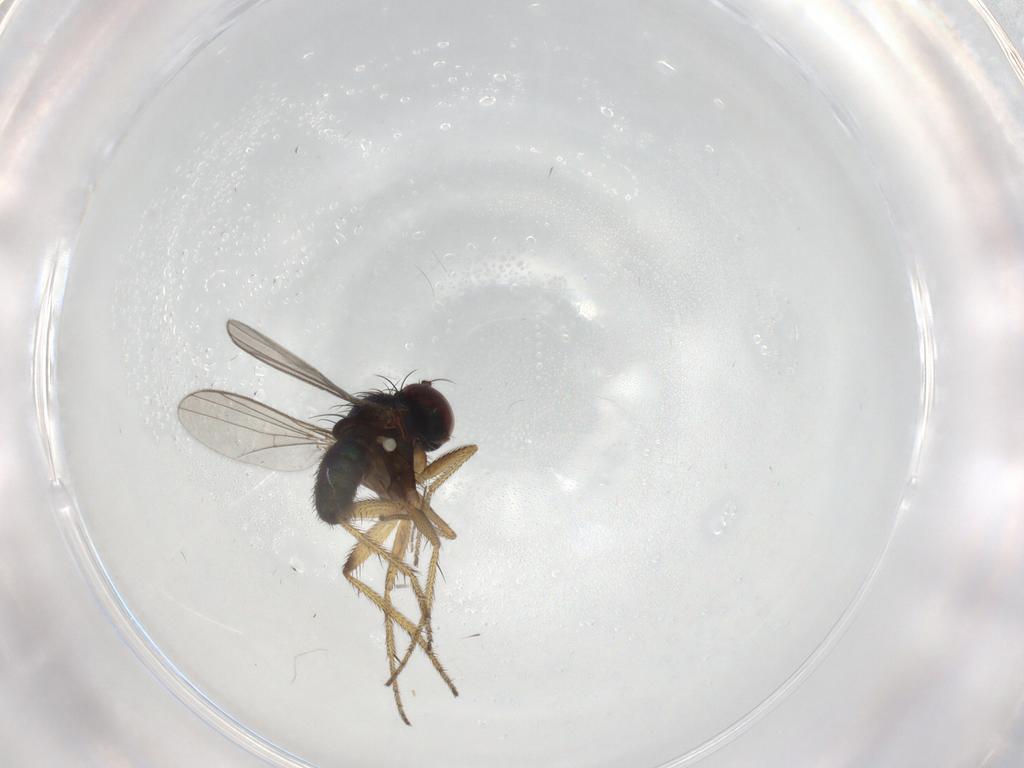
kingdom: Animalia
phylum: Arthropoda
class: Insecta
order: Diptera
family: Dolichopodidae
